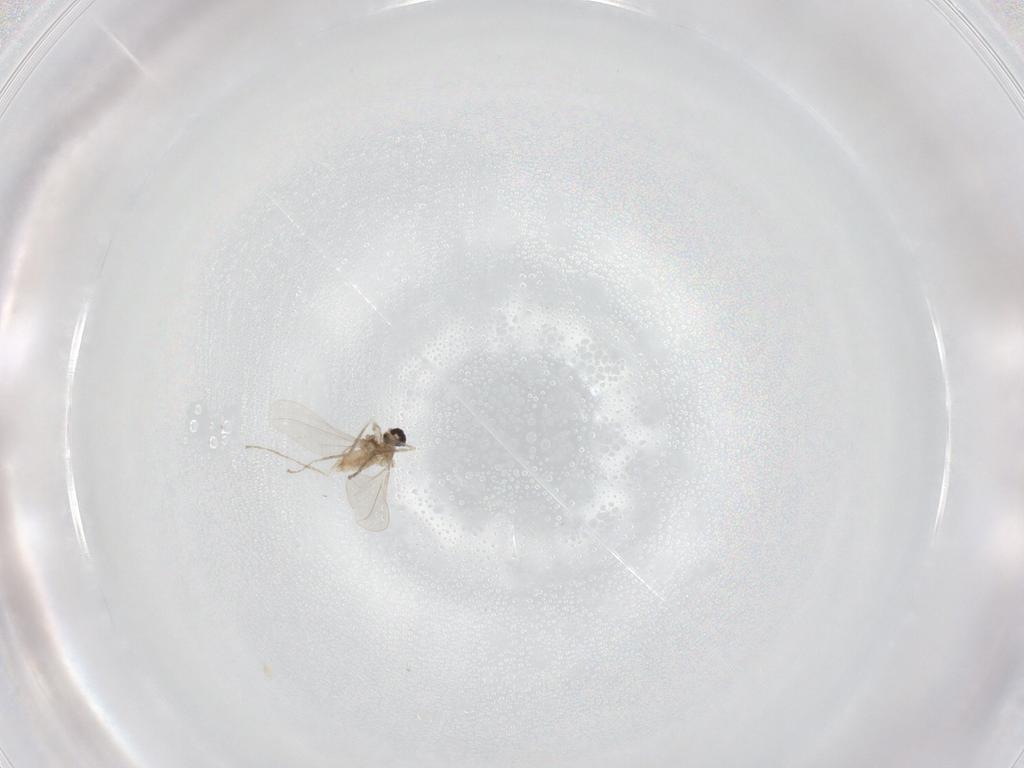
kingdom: Animalia
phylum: Arthropoda
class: Insecta
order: Diptera
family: Cecidomyiidae
